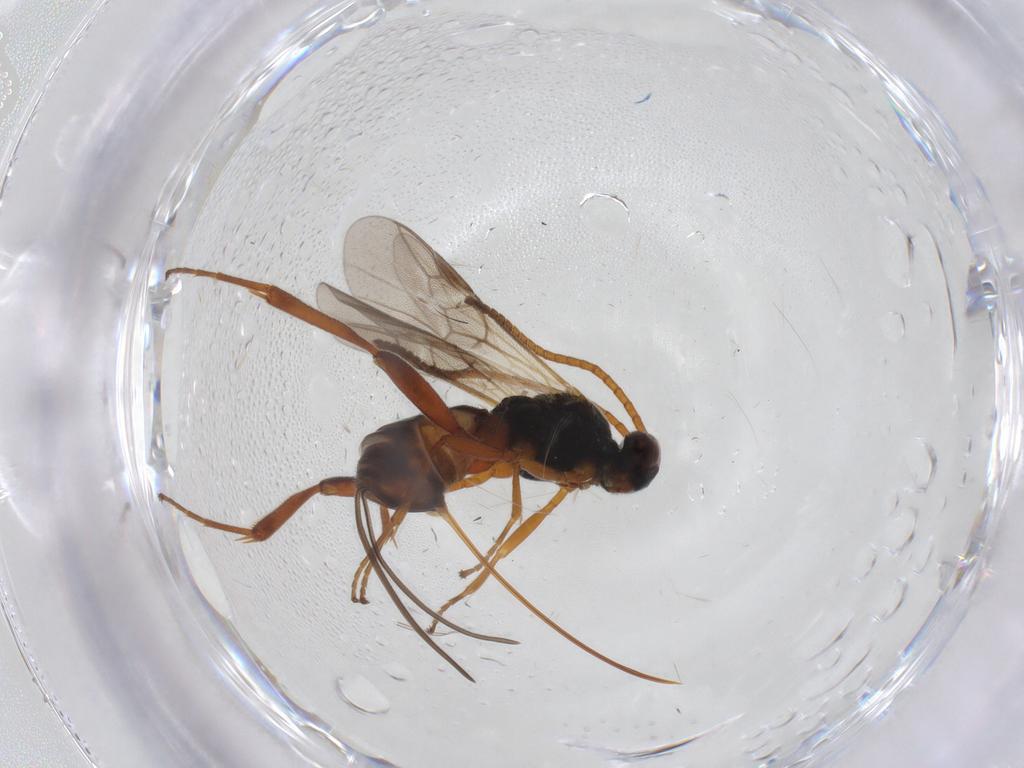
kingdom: Animalia
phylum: Arthropoda
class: Insecta
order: Hymenoptera
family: Braconidae
